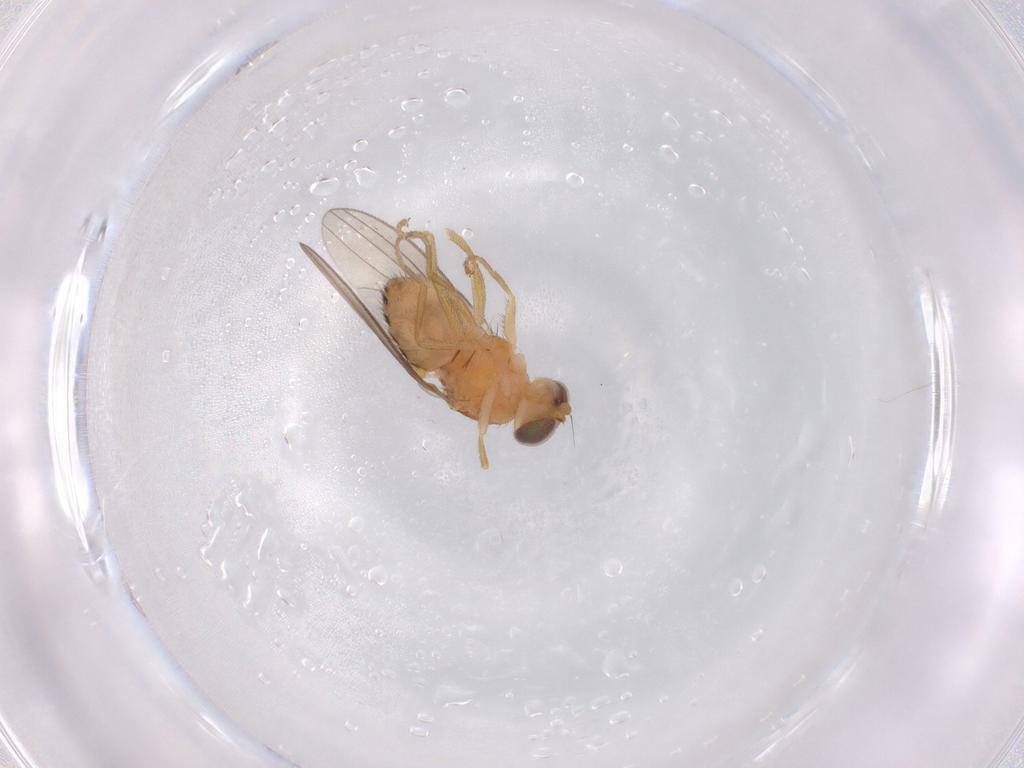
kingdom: Animalia
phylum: Arthropoda
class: Insecta
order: Diptera
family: Chyromyidae
